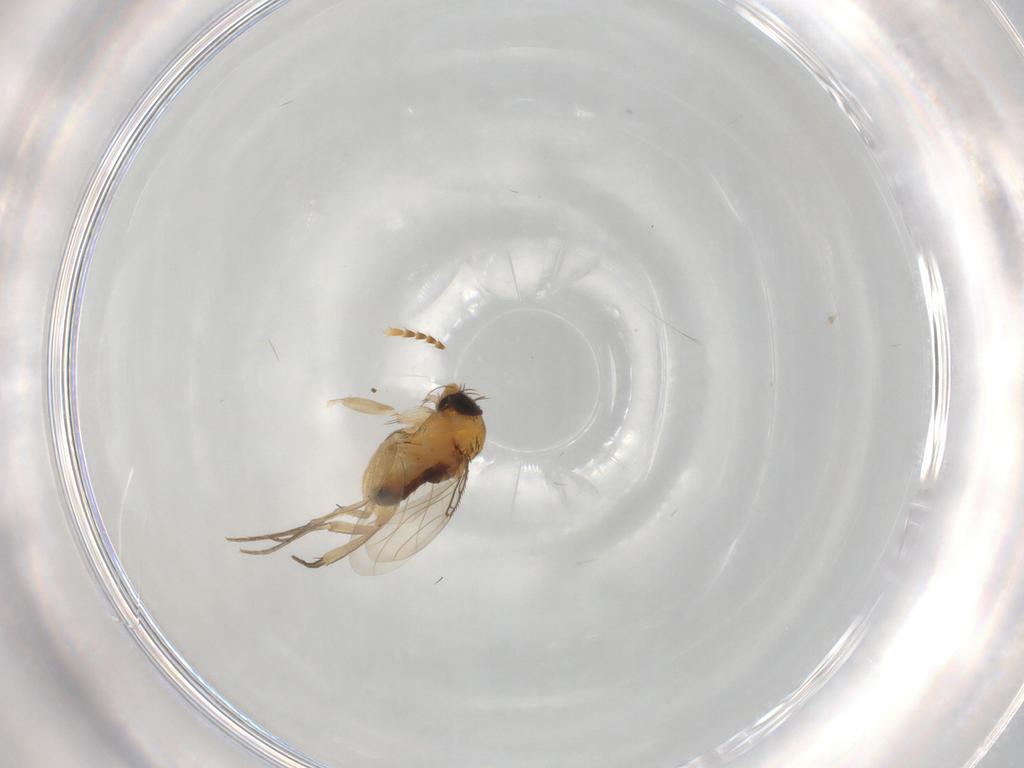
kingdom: Animalia
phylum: Arthropoda
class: Insecta
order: Diptera
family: Phoridae
